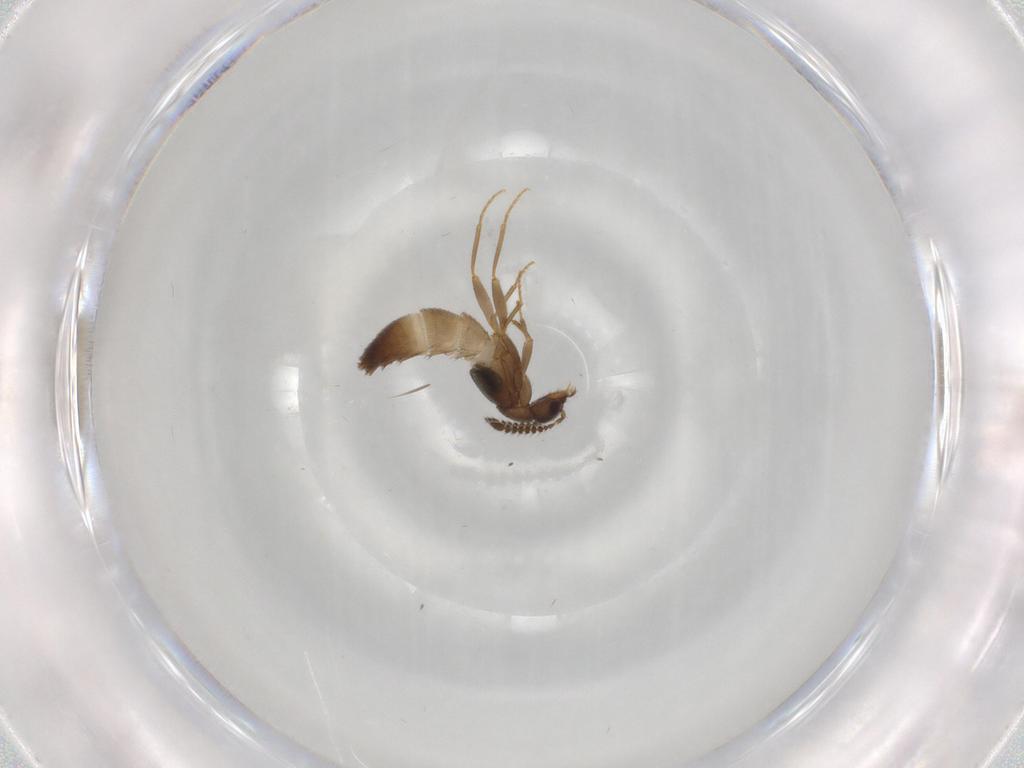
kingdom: Animalia
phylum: Arthropoda
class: Insecta
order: Coleoptera
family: Staphylinidae
